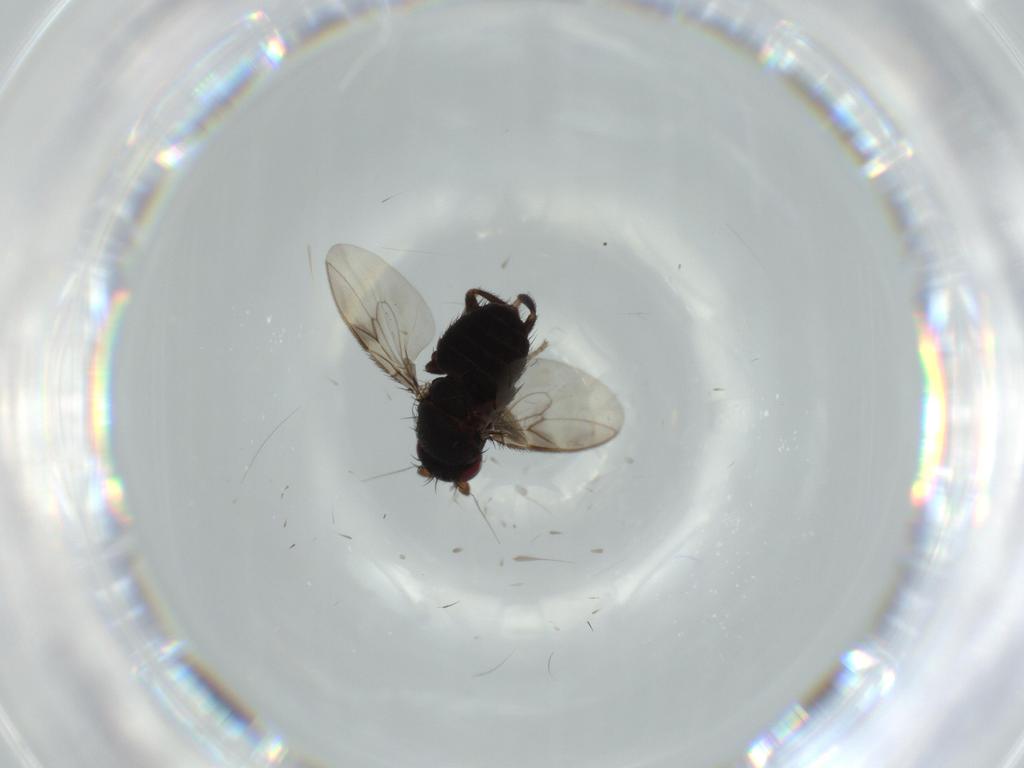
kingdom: Animalia
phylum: Arthropoda
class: Insecta
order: Diptera
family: Sphaeroceridae
